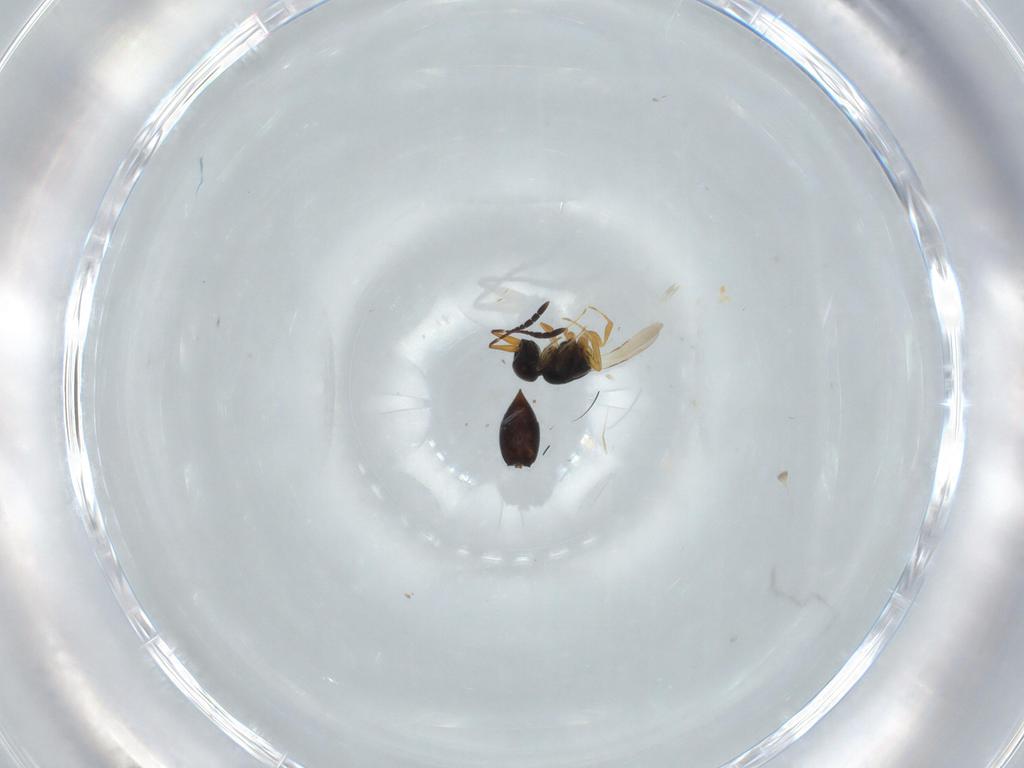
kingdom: Animalia
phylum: Arthropoda
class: Insecta
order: Hymenoptera
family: Ceraphronidae
